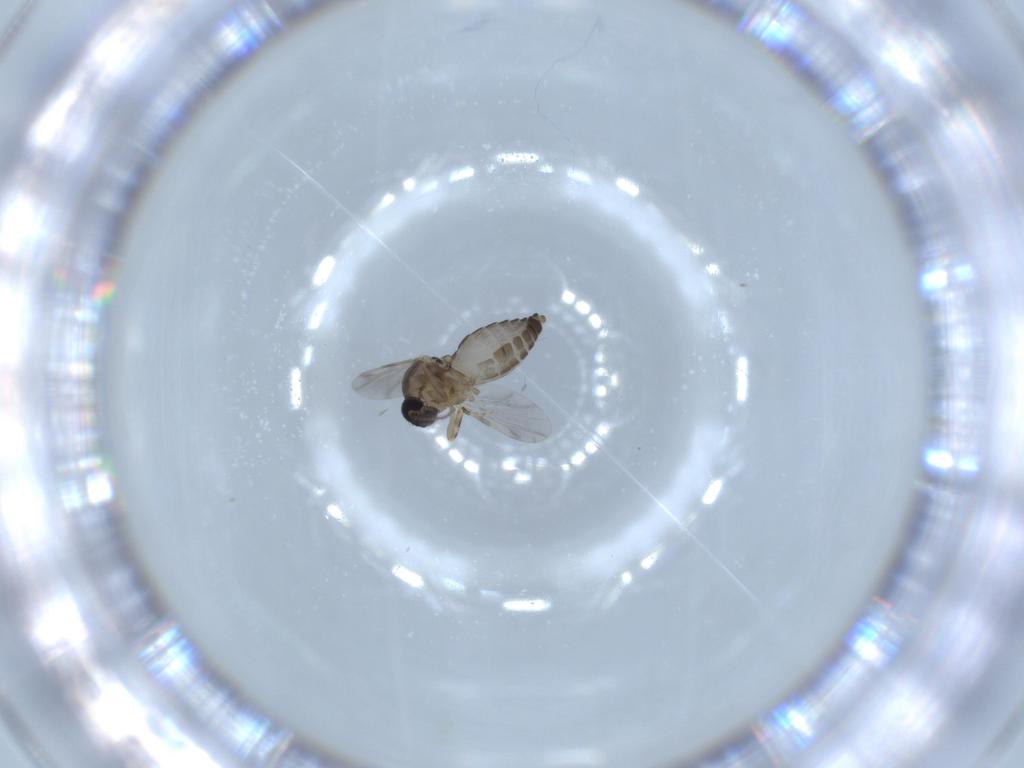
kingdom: Animalia
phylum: Arthropoda
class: Insecta
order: Diptera
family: Ceratopogonidae
